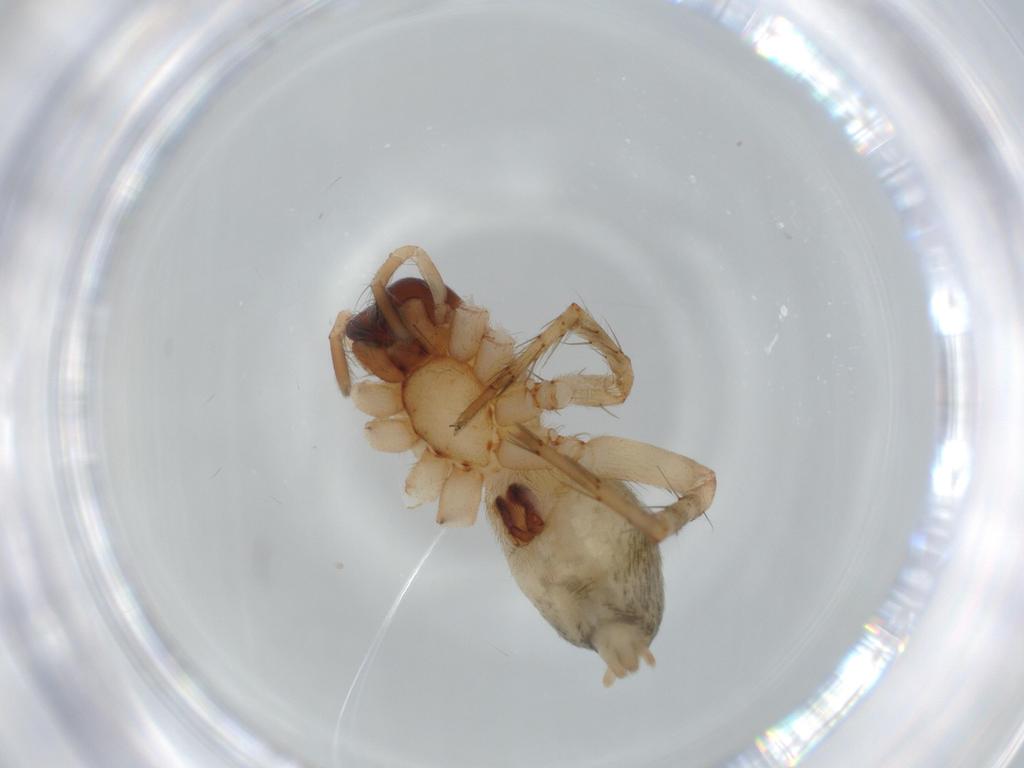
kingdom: Animalia
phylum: Arthropoda
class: Arachnida
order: Araneae
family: Anyphaenidae
